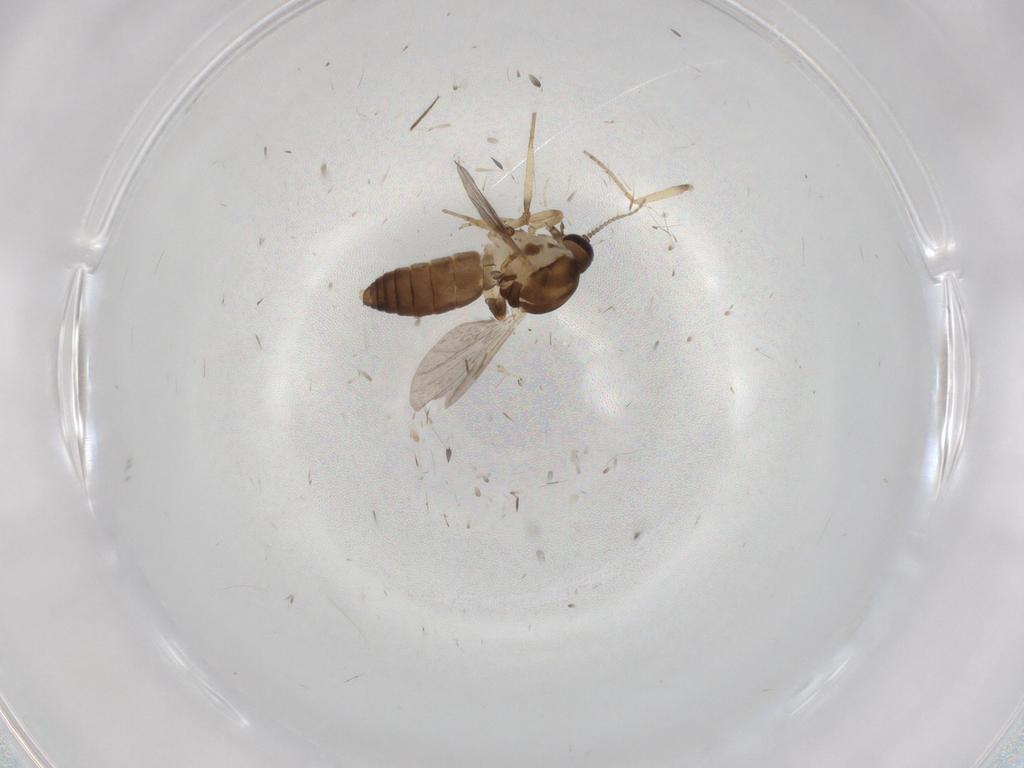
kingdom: Animalia
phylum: Arthropoda
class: Insecta
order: Diptera
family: Ceratopogonidae
